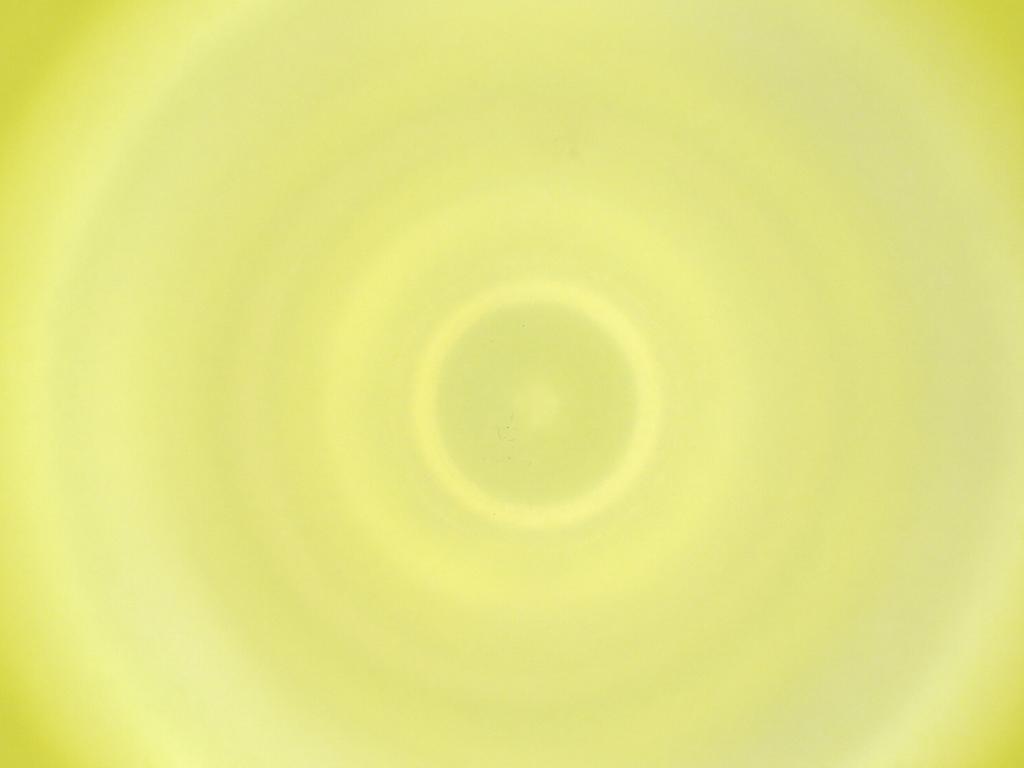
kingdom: Animalia
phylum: Arthropoda
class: Insecta
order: Diptera
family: Cecidomyiidae
